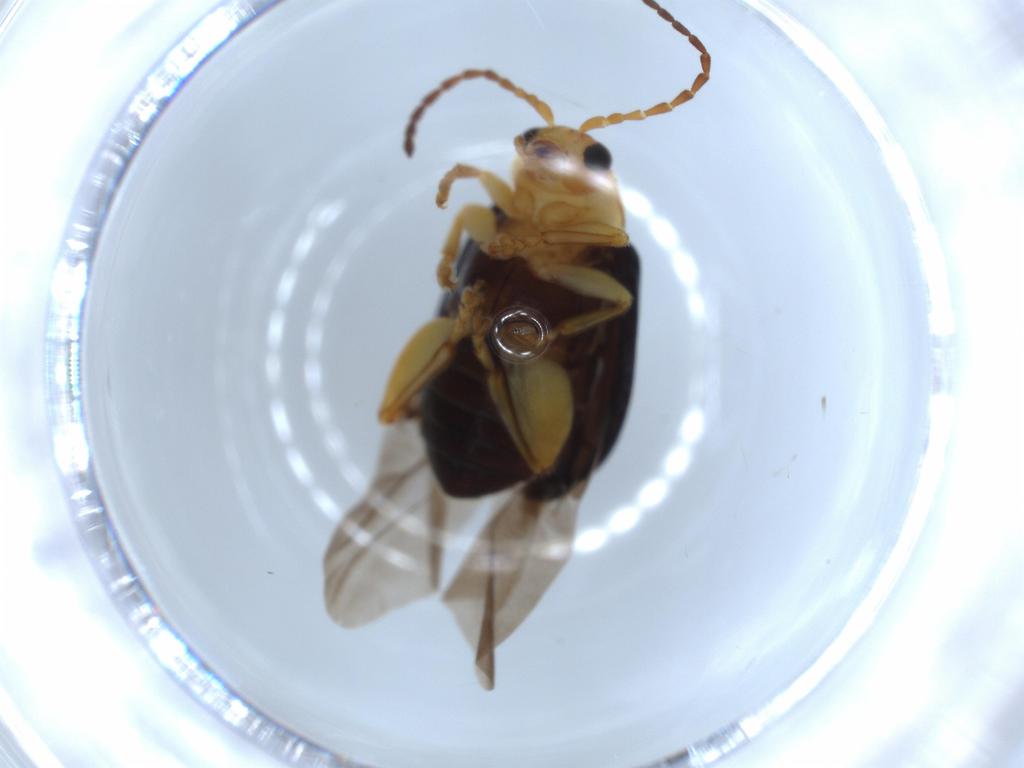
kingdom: Animalia
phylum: Arthropoda
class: Insecta
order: Coleoptera
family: Chrysomelidae
